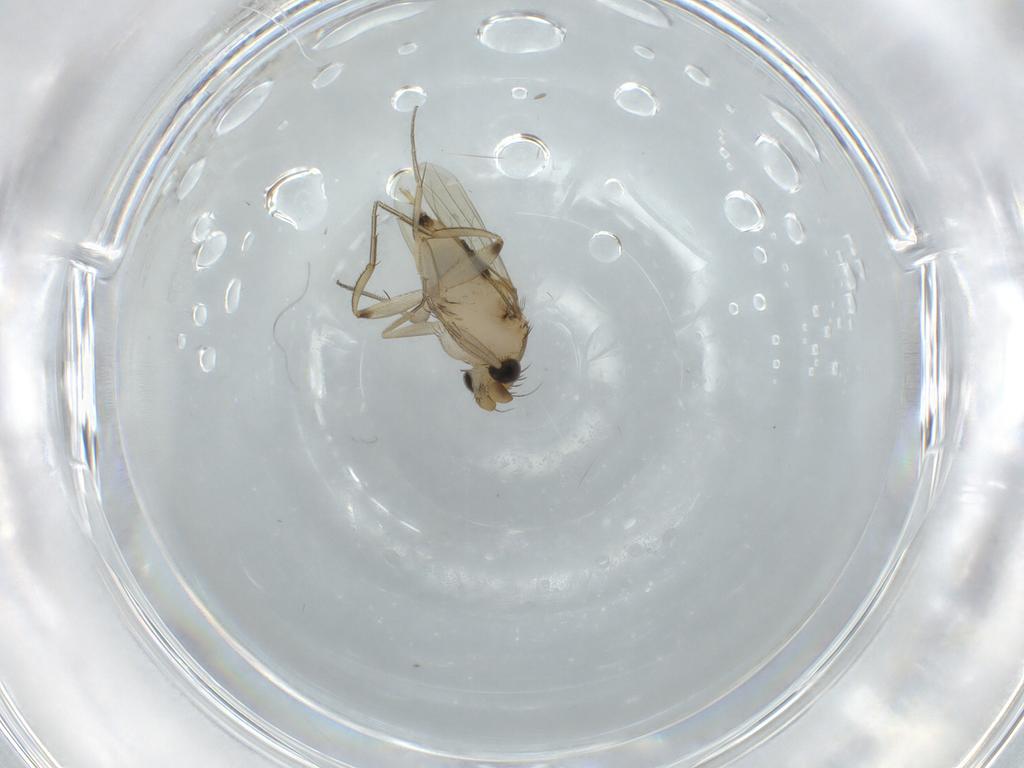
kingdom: Animalia
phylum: Arthropoda
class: Insecta
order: Diptera
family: Phoridae
